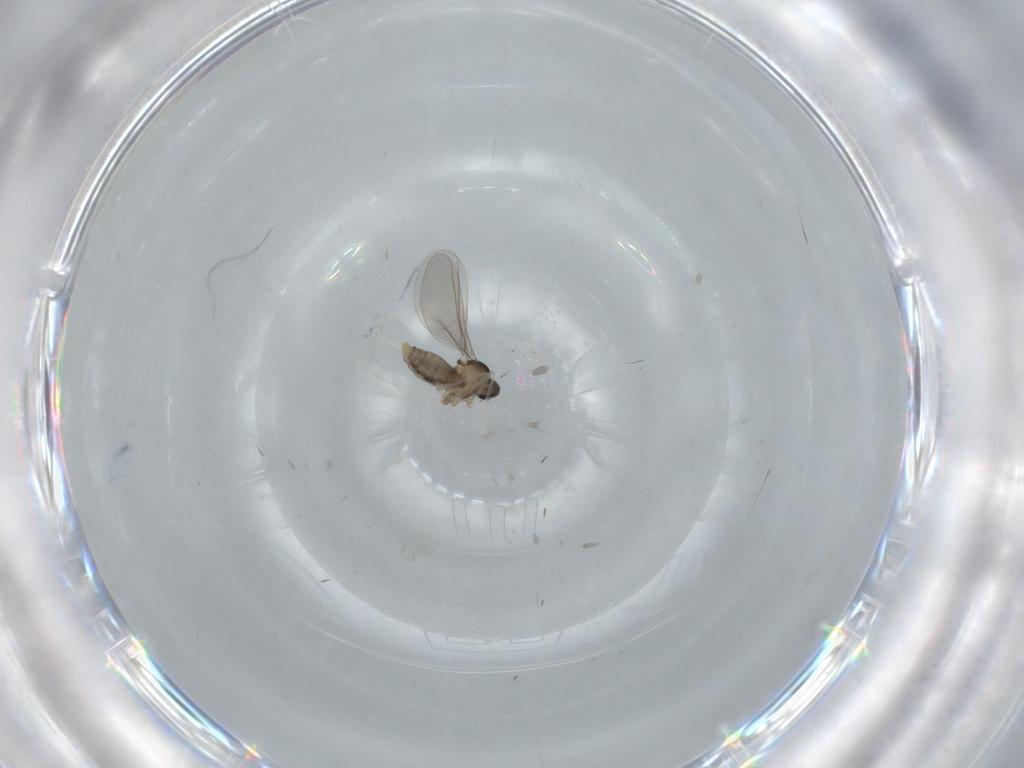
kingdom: Animalia
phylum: Arthropoda
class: Insecta
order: Diptera
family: Cecidomyiidae
